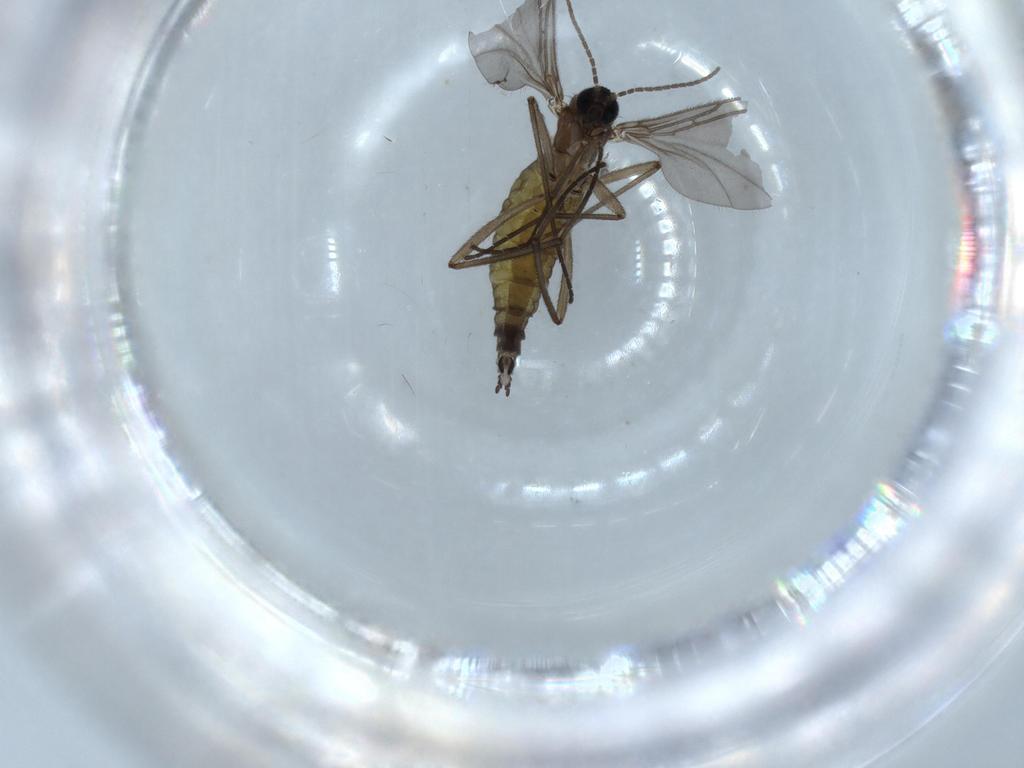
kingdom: Animalia
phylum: Arthropoda
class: Insecta
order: Diptera
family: Sciaridae
